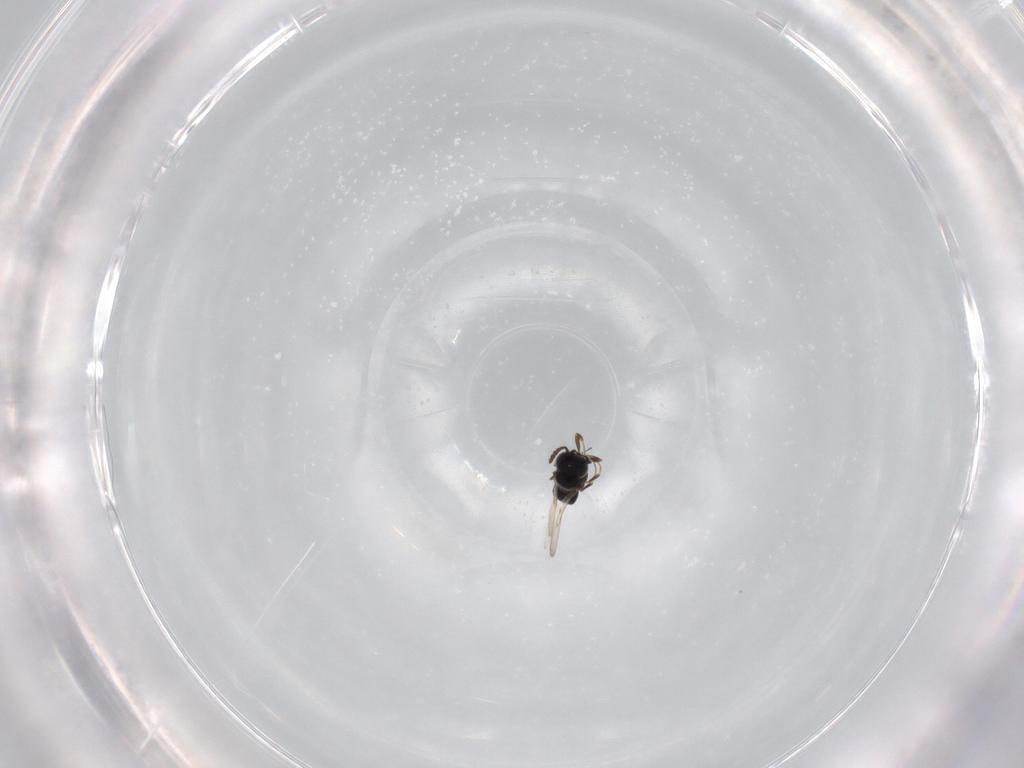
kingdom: Animalia
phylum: Arthropoda
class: Insecta
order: Hymenoptera
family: Scelionidae
